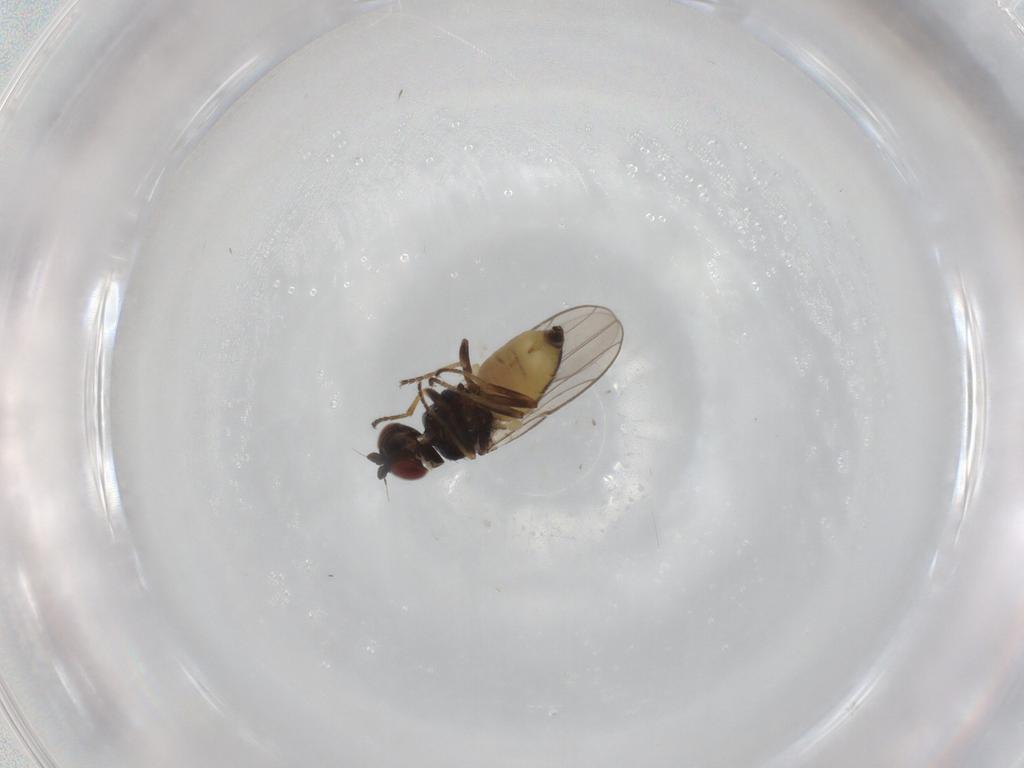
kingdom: Animalia
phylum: Arthropoda
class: Insecta
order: Diptera
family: Chloropidae
